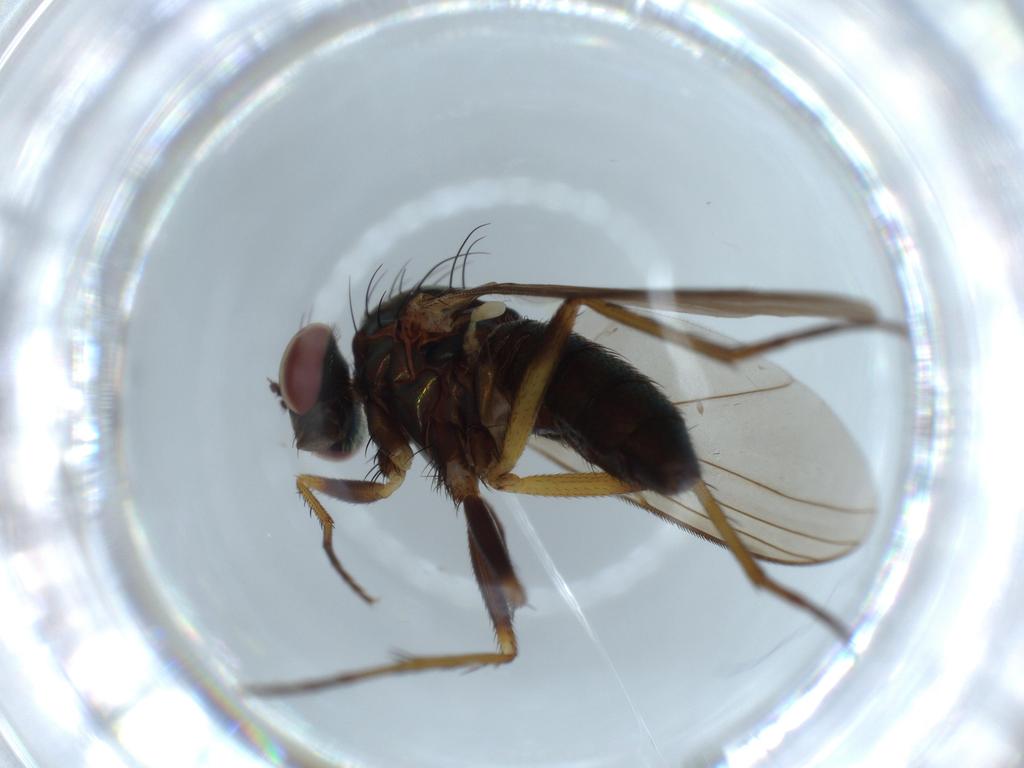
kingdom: Animalia
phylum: Arthropoda
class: Insecta
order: Diptera
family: Dolichopodidae
